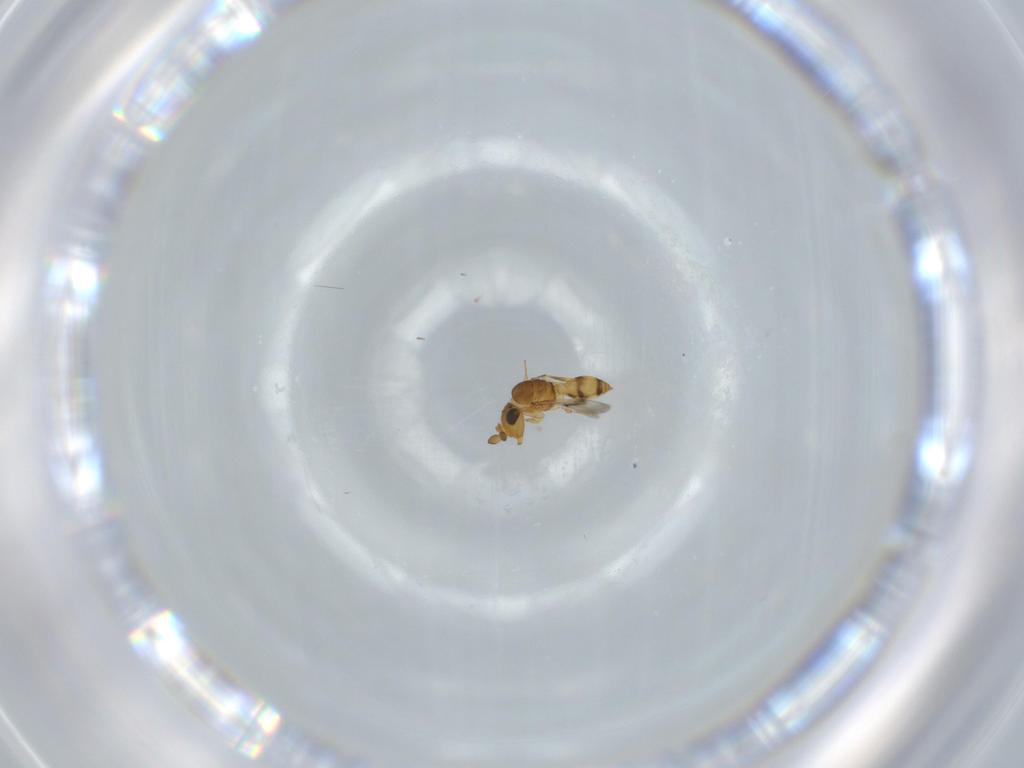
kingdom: Animalia
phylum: Arthropoda
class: Insecta
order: Hymenoptera
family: Scelionidae
